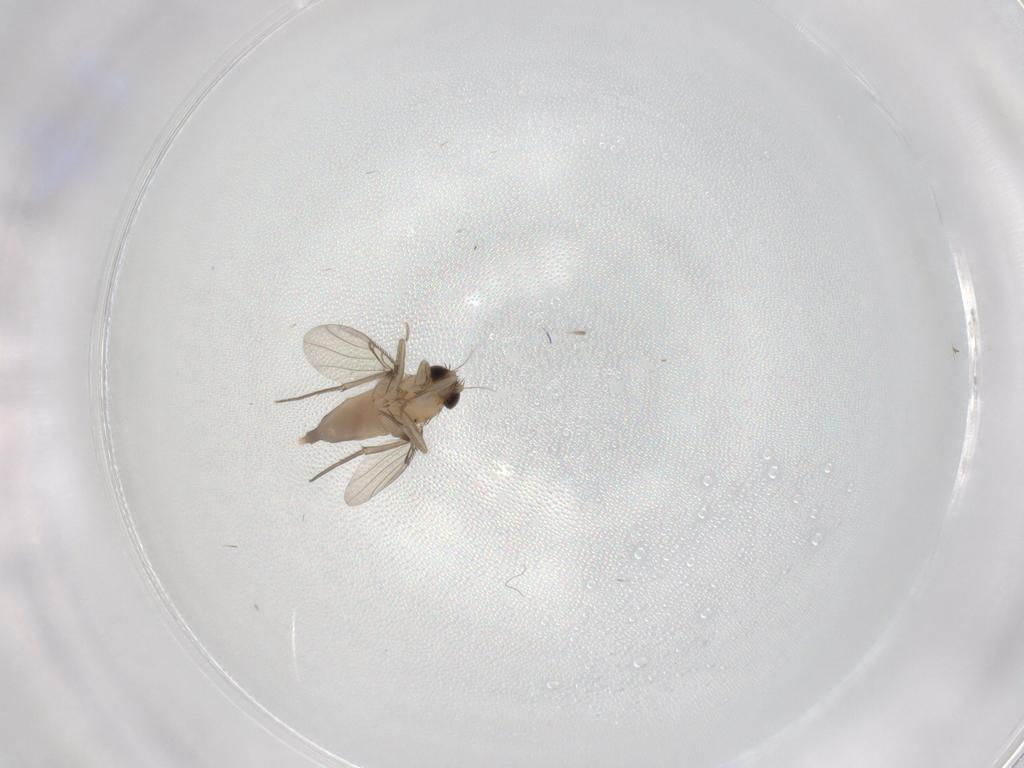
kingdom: Animalia
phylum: Arthropoda
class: Insecta
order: Diptera
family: Phoridae
